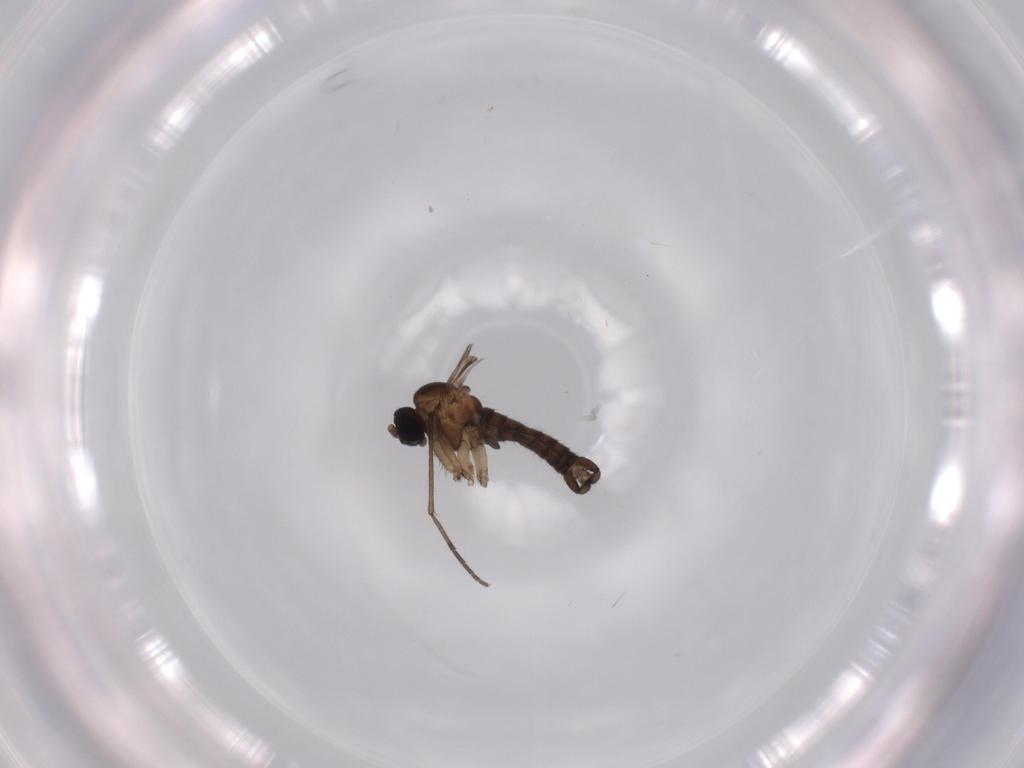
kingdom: Animalia
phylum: Arthropoda
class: Insecta
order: Diptera
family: Sciaridae
